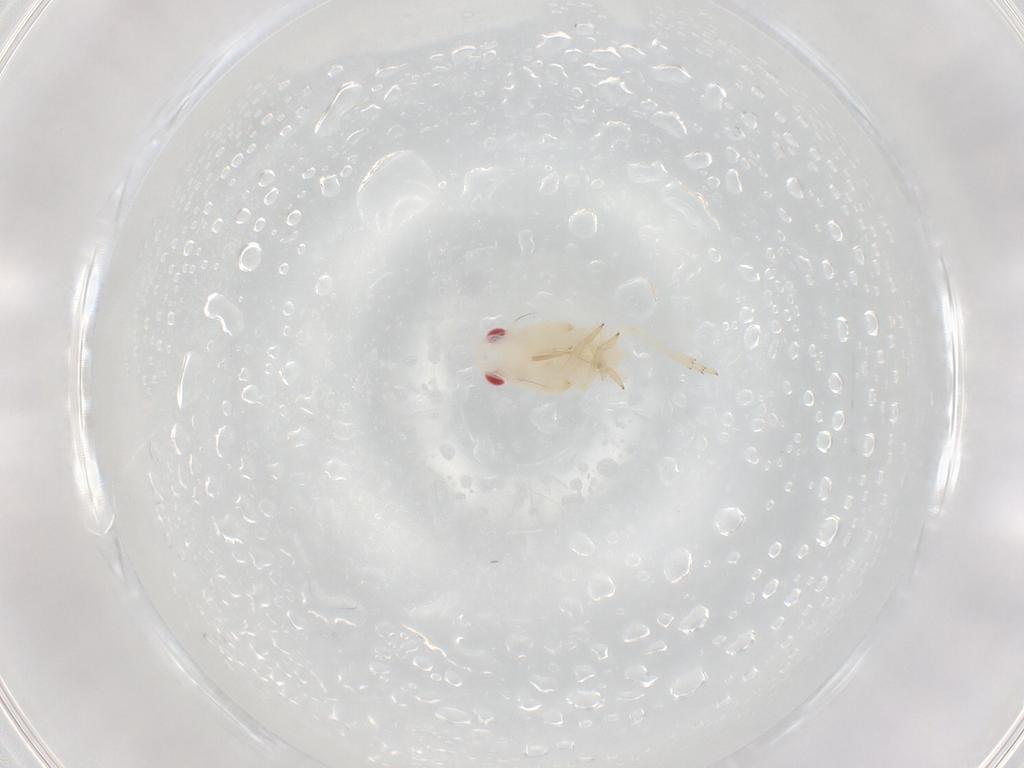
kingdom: Animalia
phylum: Arthropoda
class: Insecta
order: Hemiptera
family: Tropiduchidae
